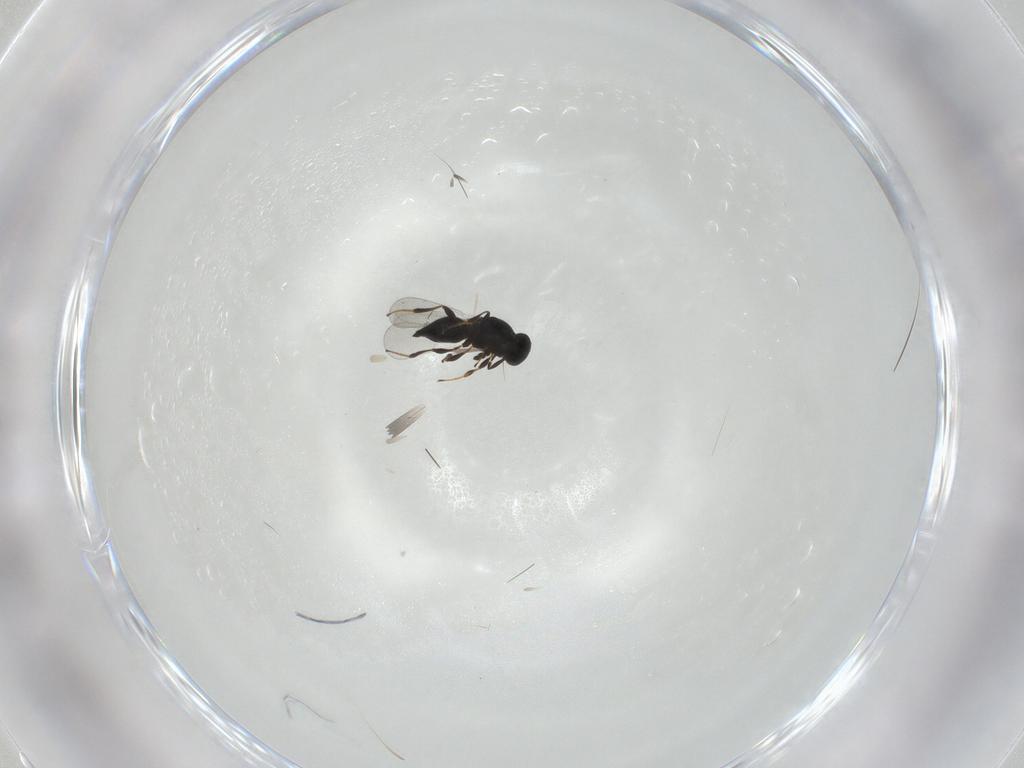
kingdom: Animalia
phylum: Arthropoda
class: Insecta
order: Hymenoptera
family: Platygastridae
